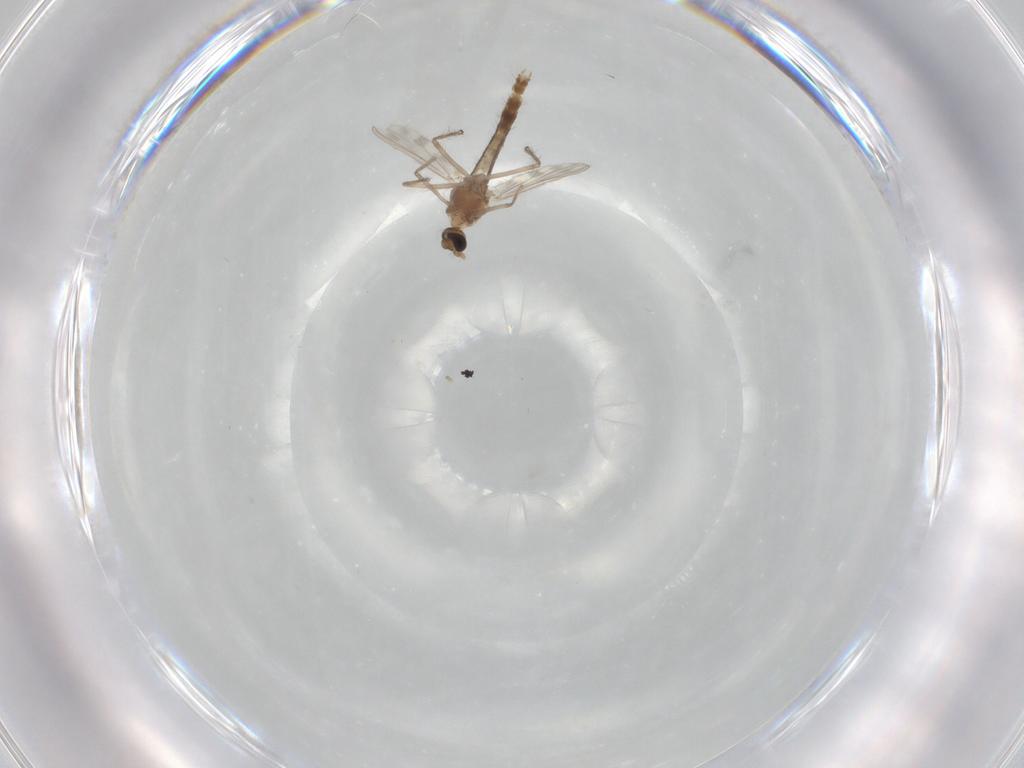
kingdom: Animalia
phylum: Arthropoda
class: Insecta
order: Diptera
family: Chironomidae
